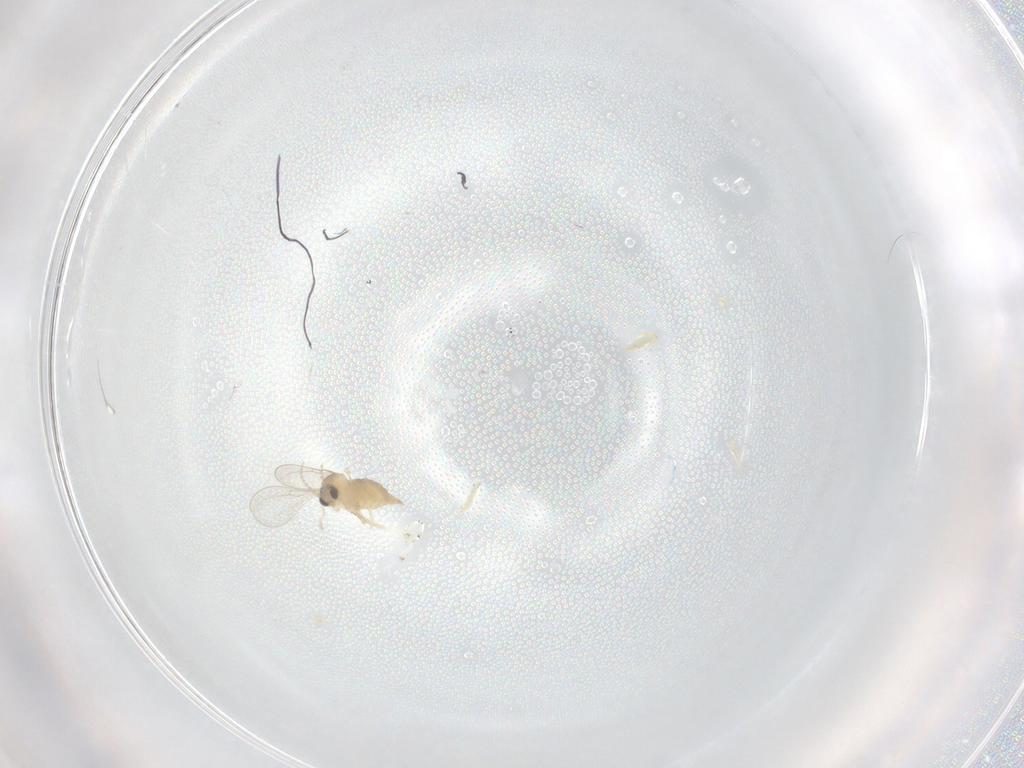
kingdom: Animalia
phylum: Arthropoda
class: Insecta
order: Diptera
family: Cecidomyiidae
